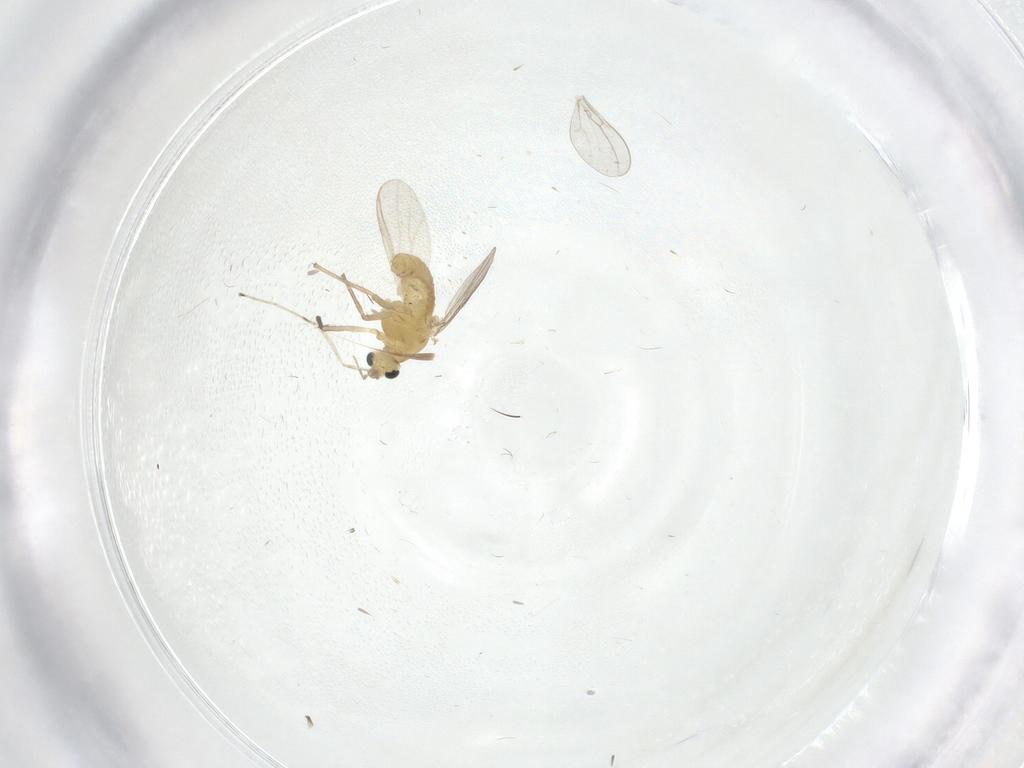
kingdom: Animalia
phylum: Arthropoda
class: Insecta
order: Diptera
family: Chironomidae
